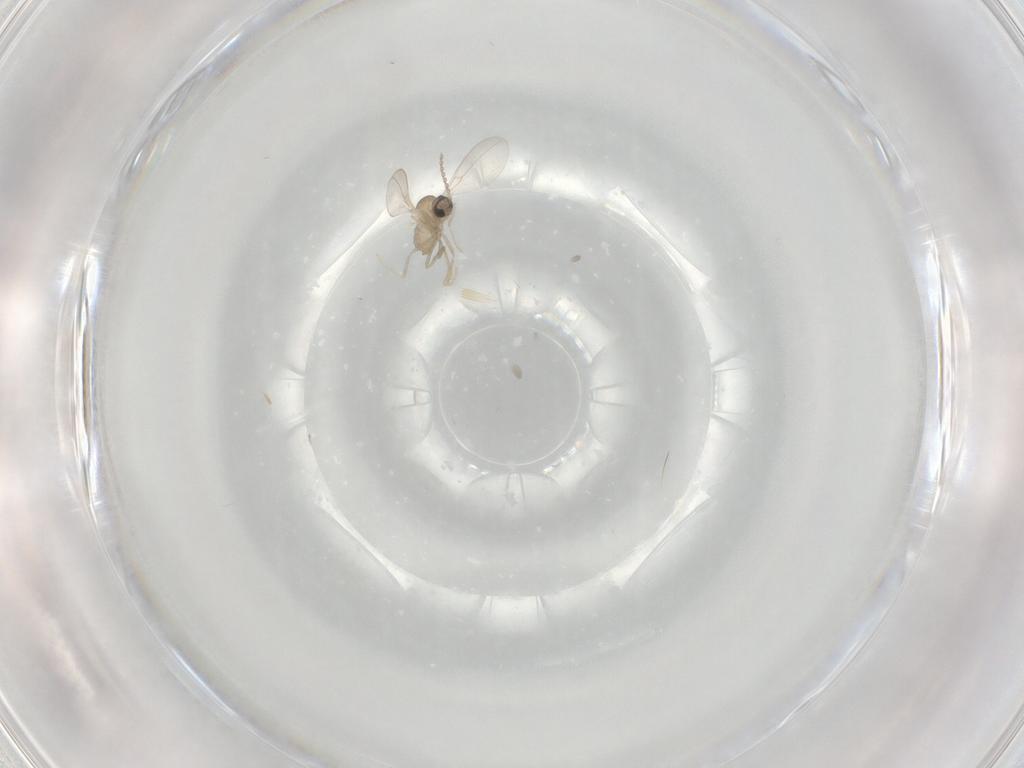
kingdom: Animalia
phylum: Arthropoda
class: Insecta
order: Diptera
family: Cecidomyiidae
